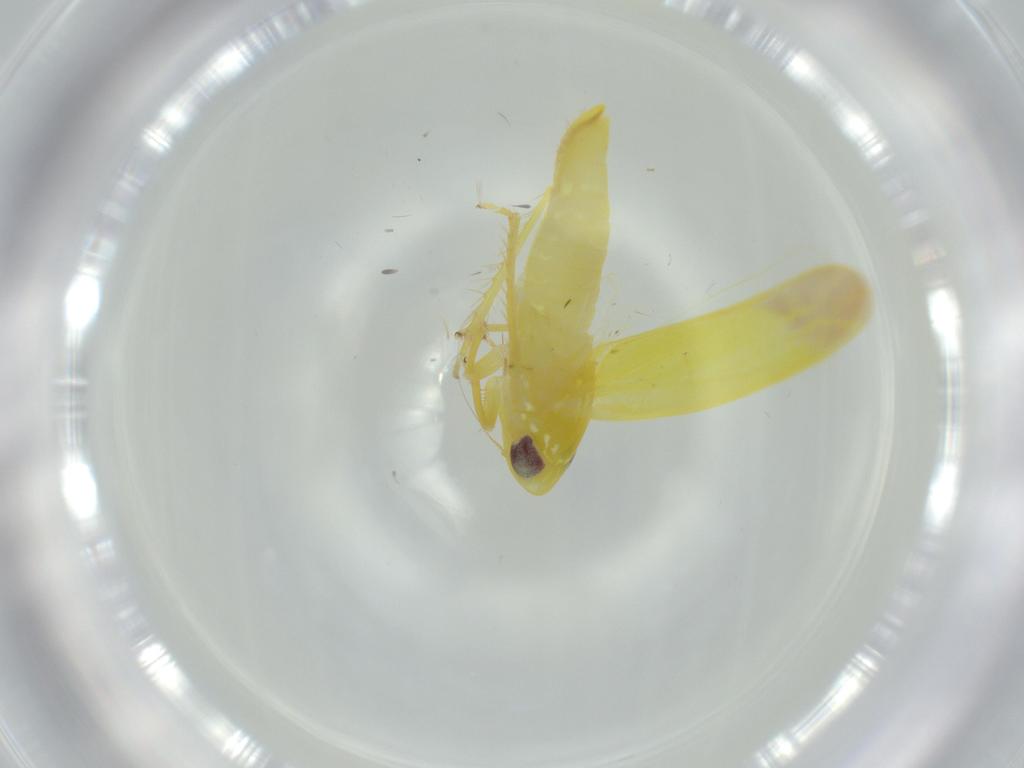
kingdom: Animalia
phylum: Arthropoda
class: Insecta
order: Hemiptera
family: Cicadellidae
